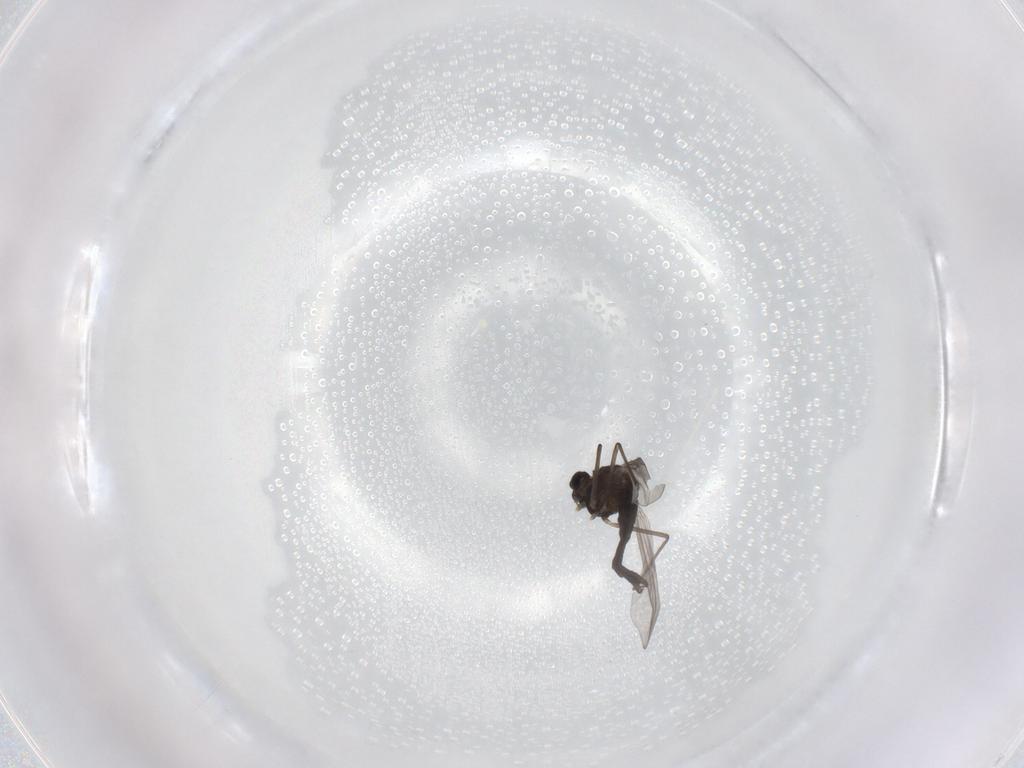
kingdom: Animalia
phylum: Arthropoda
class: Insecta
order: Diptera
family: Chironomidae
